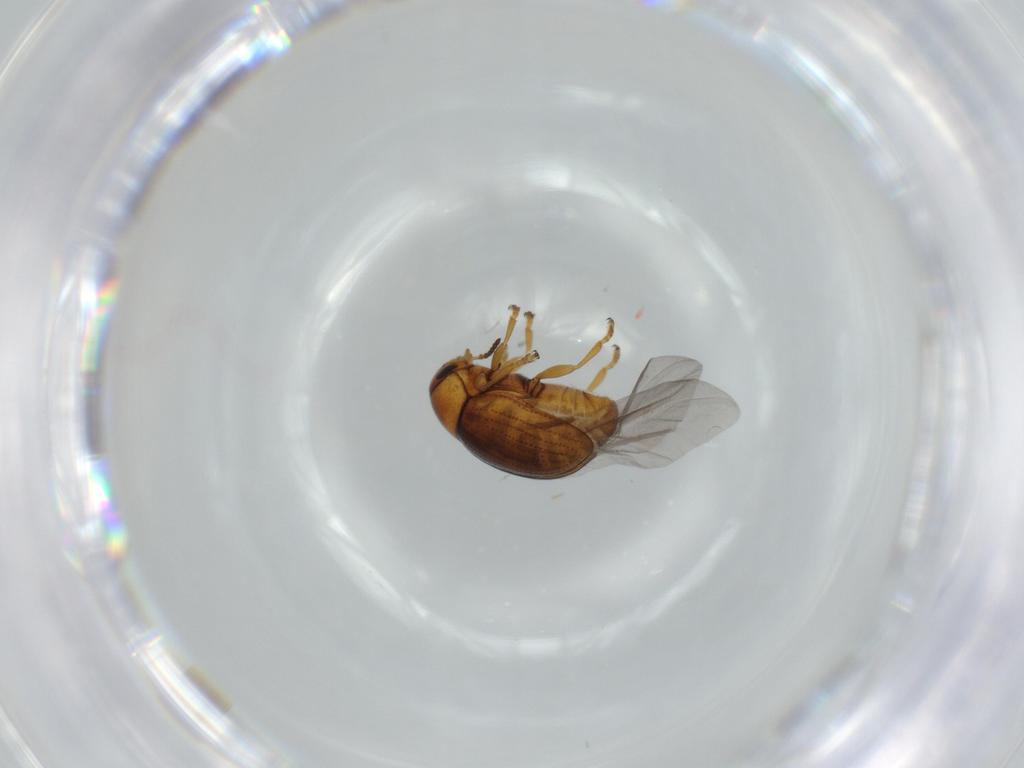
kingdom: Animalia
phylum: Arthropoda
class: Insecta
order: Coleoptera
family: Chrysomelidae
